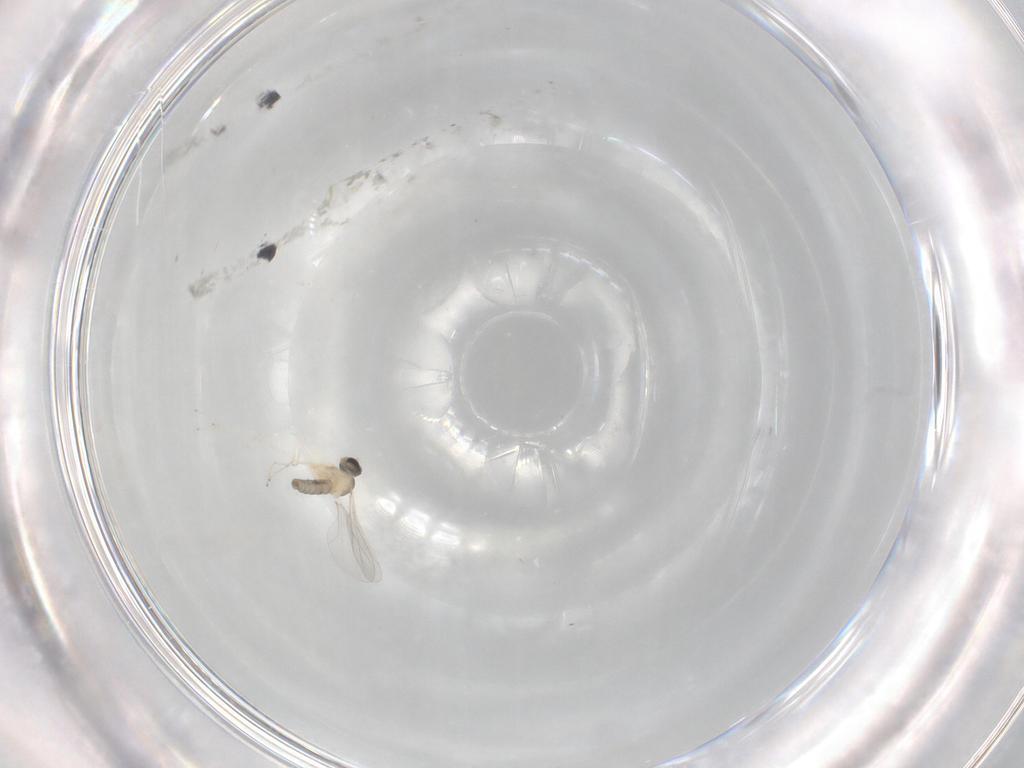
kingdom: Animalia
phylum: Arthropoda
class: Insecta
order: Diptera
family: Cecidomyiidae
